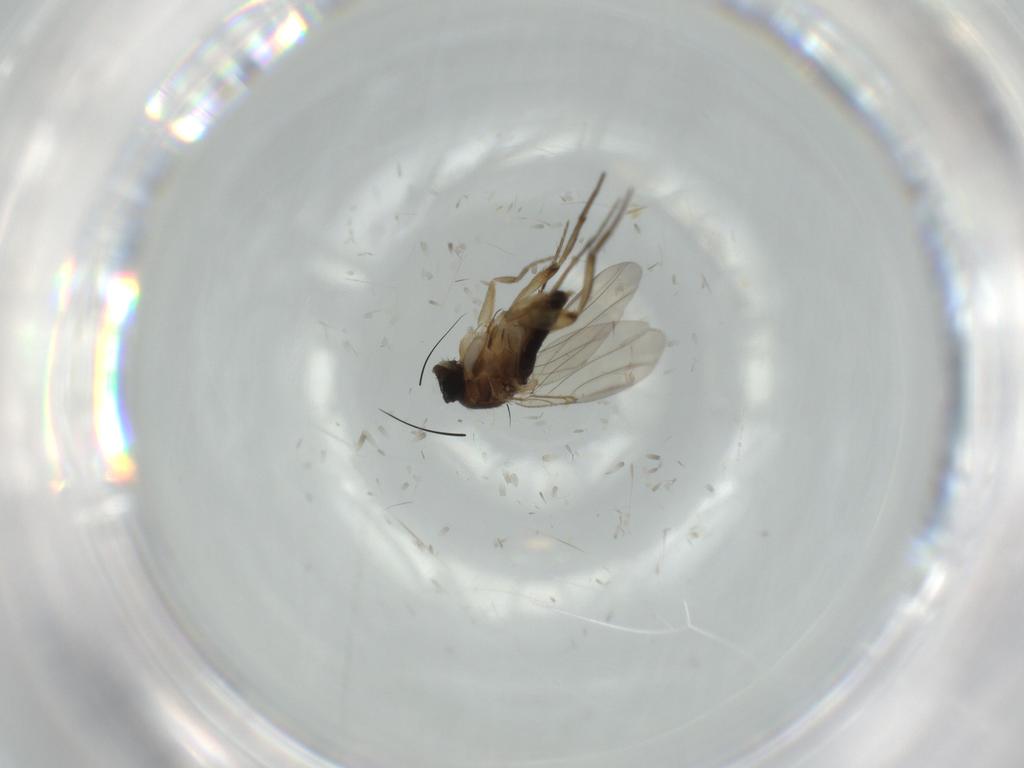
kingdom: Animalia
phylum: Arthropoda
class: Insecta
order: Diptera
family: Phoridae
